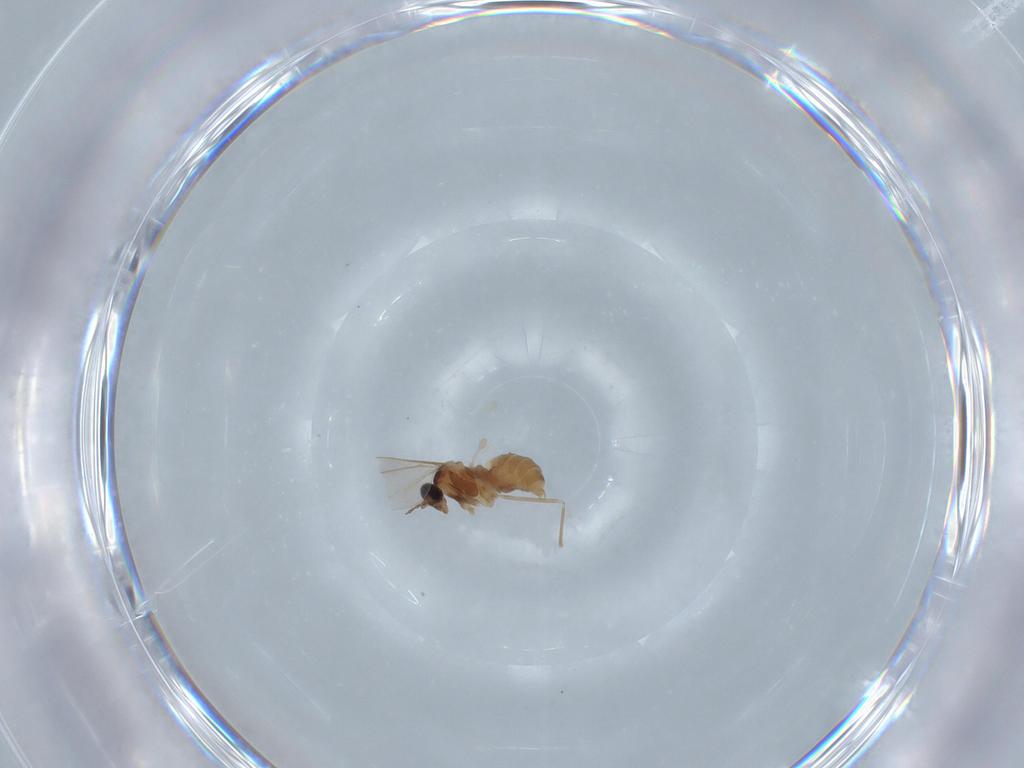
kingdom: Animalia
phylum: Arthropoda
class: Insecta
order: Diptera
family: Cecidomyiidae
